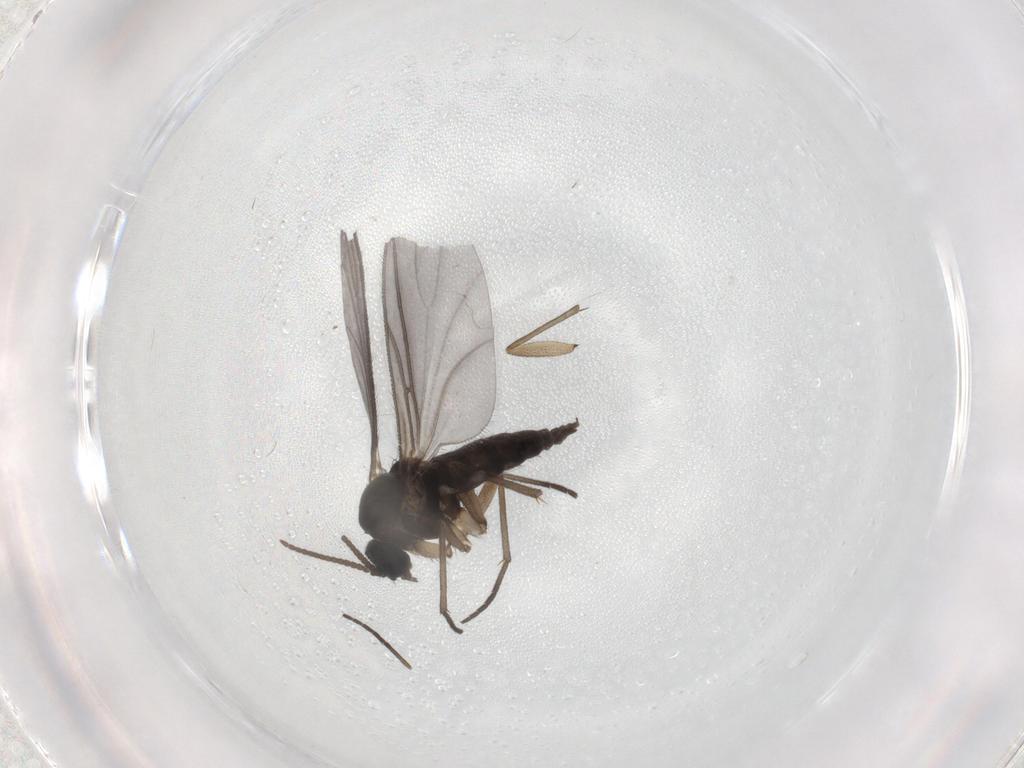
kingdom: Animalia
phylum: Arthropoda
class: Insecta
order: Diptera
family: Sciaridae
